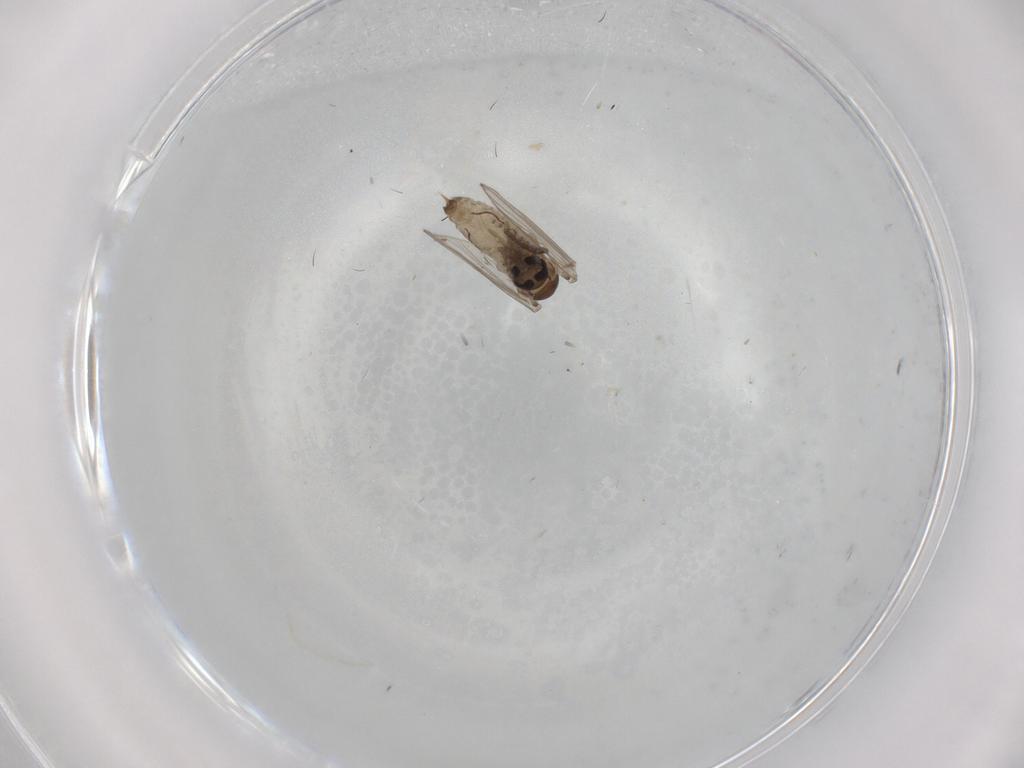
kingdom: Animalia
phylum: Arthropoda
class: Insecta
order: Diptera
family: Psychodidae
